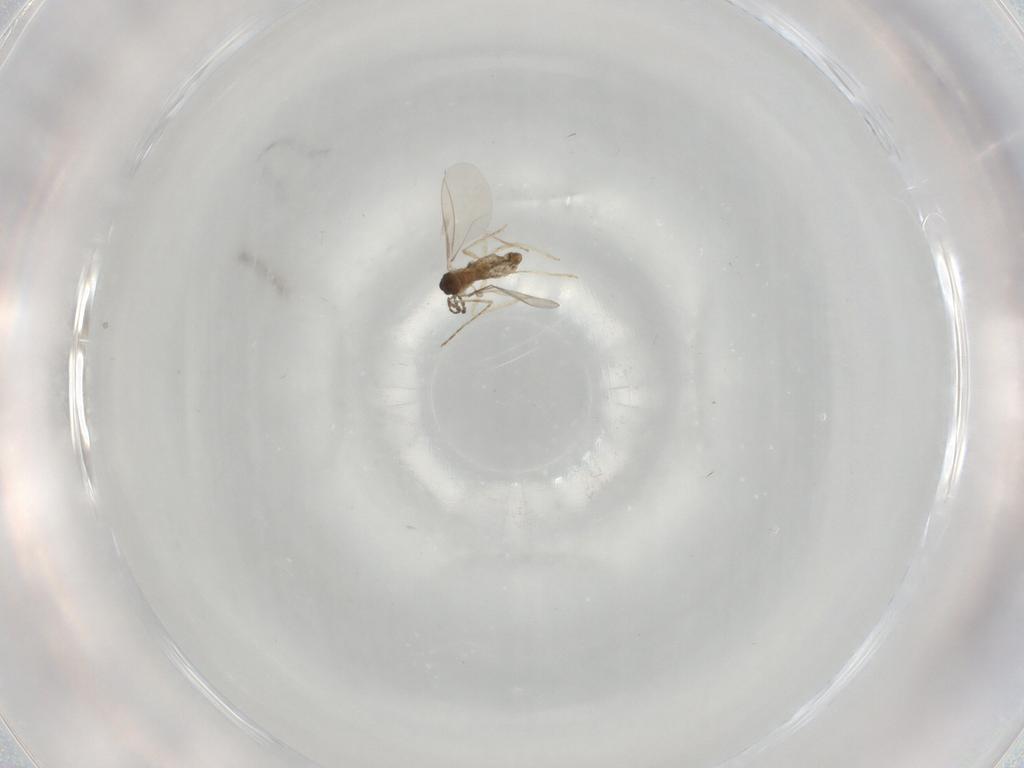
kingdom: Animalia
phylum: Arthropoda
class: Insecta
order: Diptera
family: Cecidomyiidae
